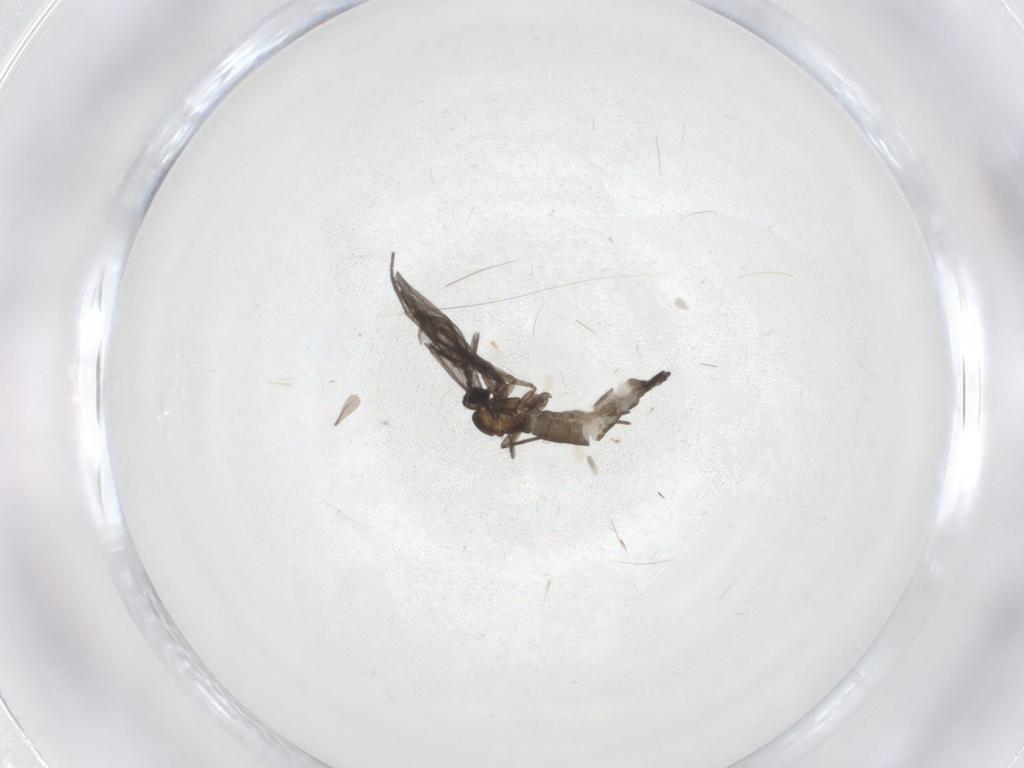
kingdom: Animalia
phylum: Arthropoda
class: Insecta
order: Diptera
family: Sciaridae
